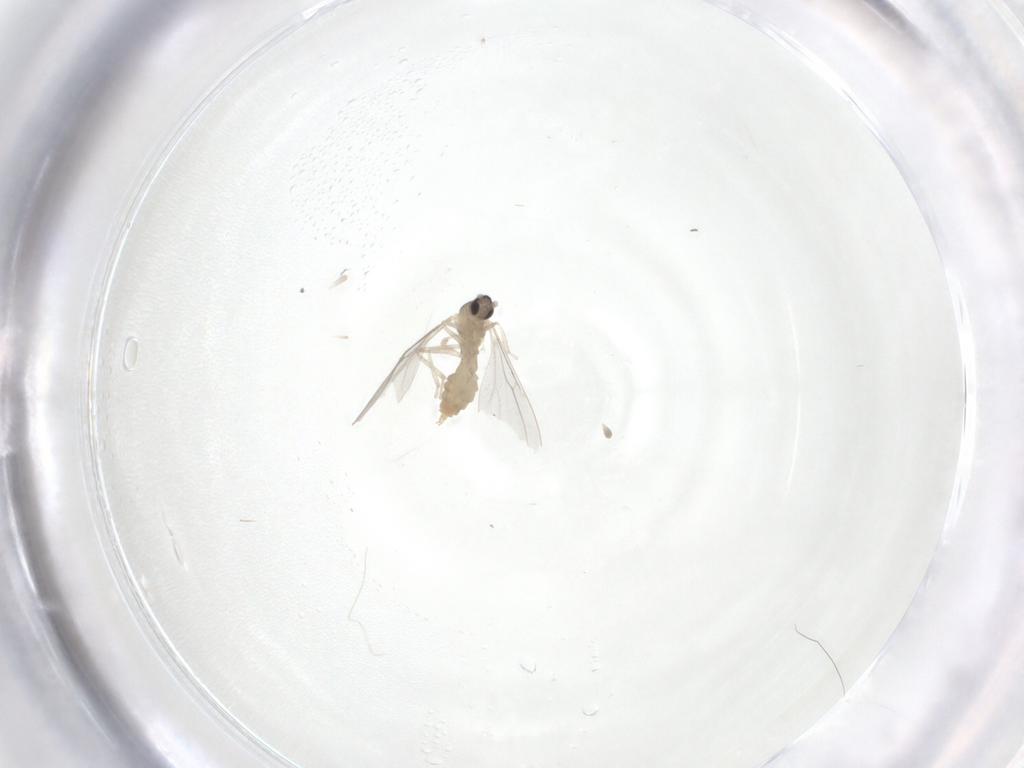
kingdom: Animalia
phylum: Arthropoda
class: Insecta
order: Diptera
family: Cecidomyiidae
